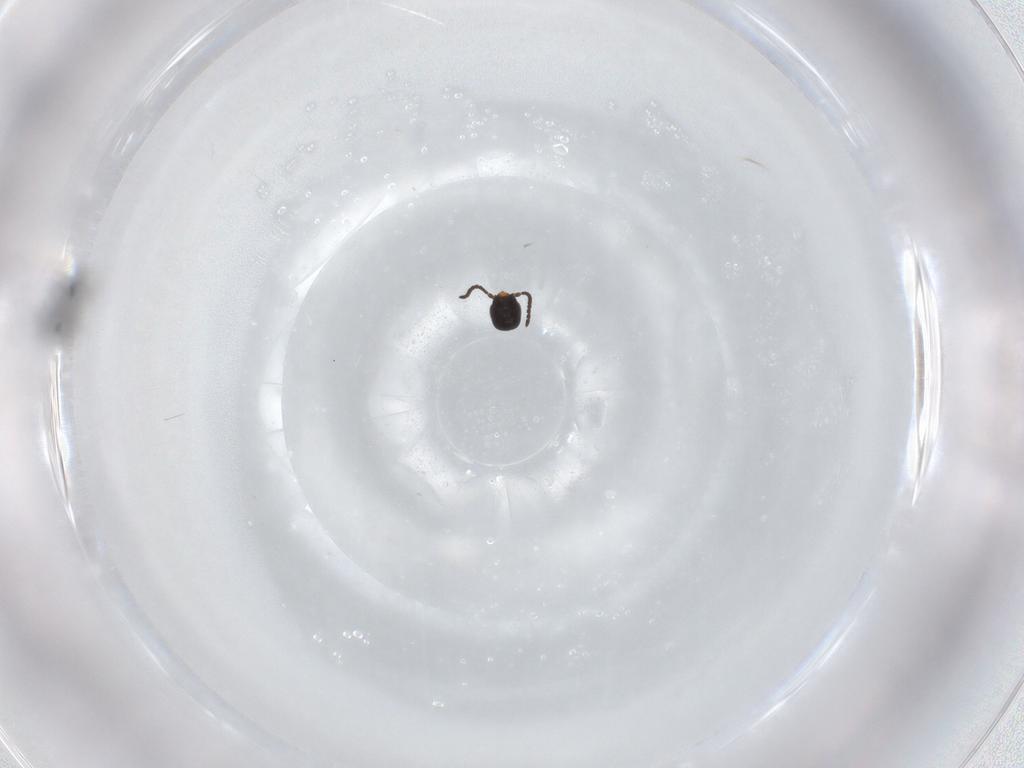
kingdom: Animalia
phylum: Arthropoda
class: Insecta
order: Hymenoptera
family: Bethylidae
